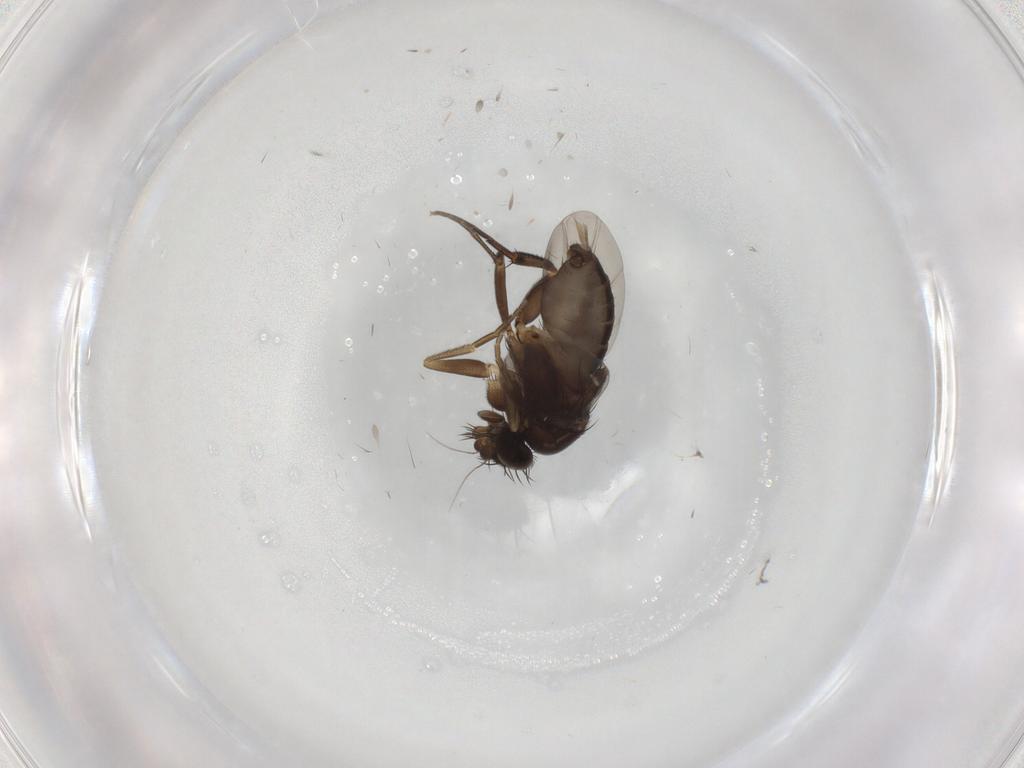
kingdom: Animalia
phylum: Arthropoda
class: Insecta
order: Diptera
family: Phoridae
